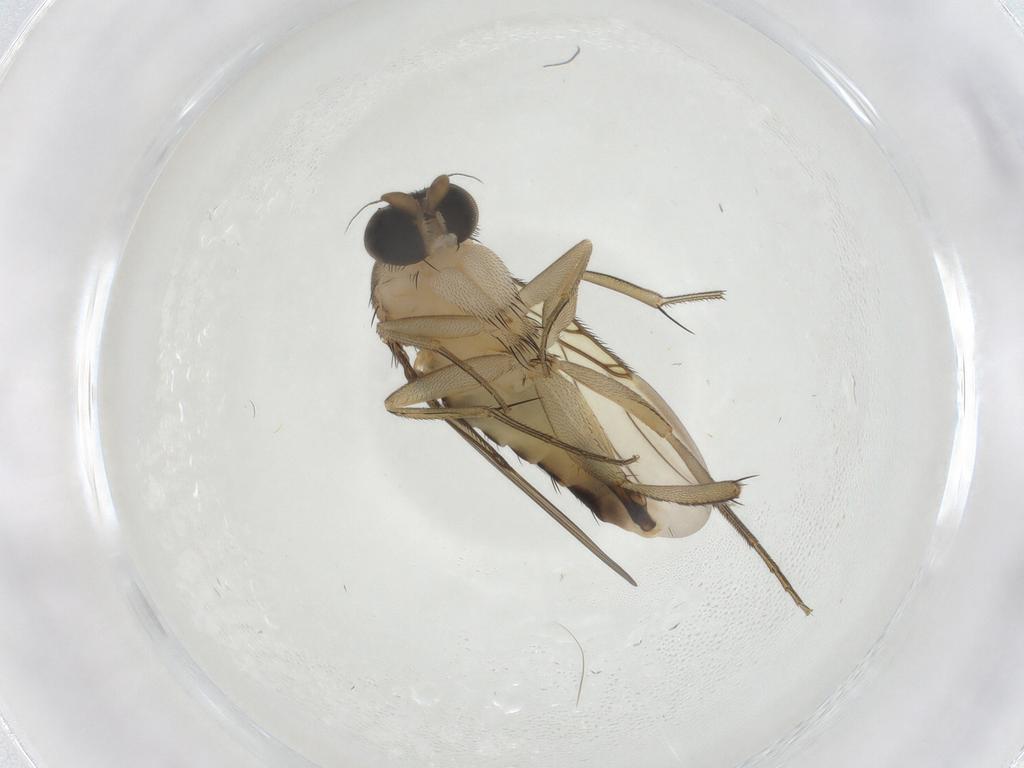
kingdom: Animalia
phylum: Arthropoda
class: Insecta
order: Diptera
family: Phoridae
